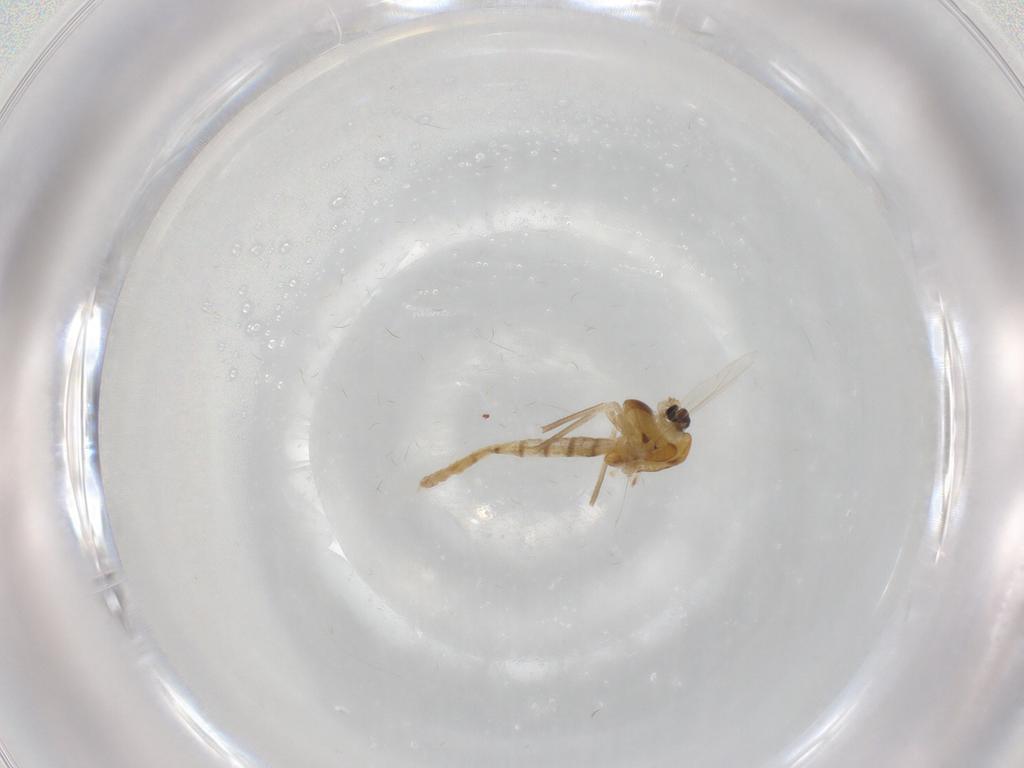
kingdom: Animalia
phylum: Arthropoda
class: Insecta
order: Diptera
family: Chironomidae
